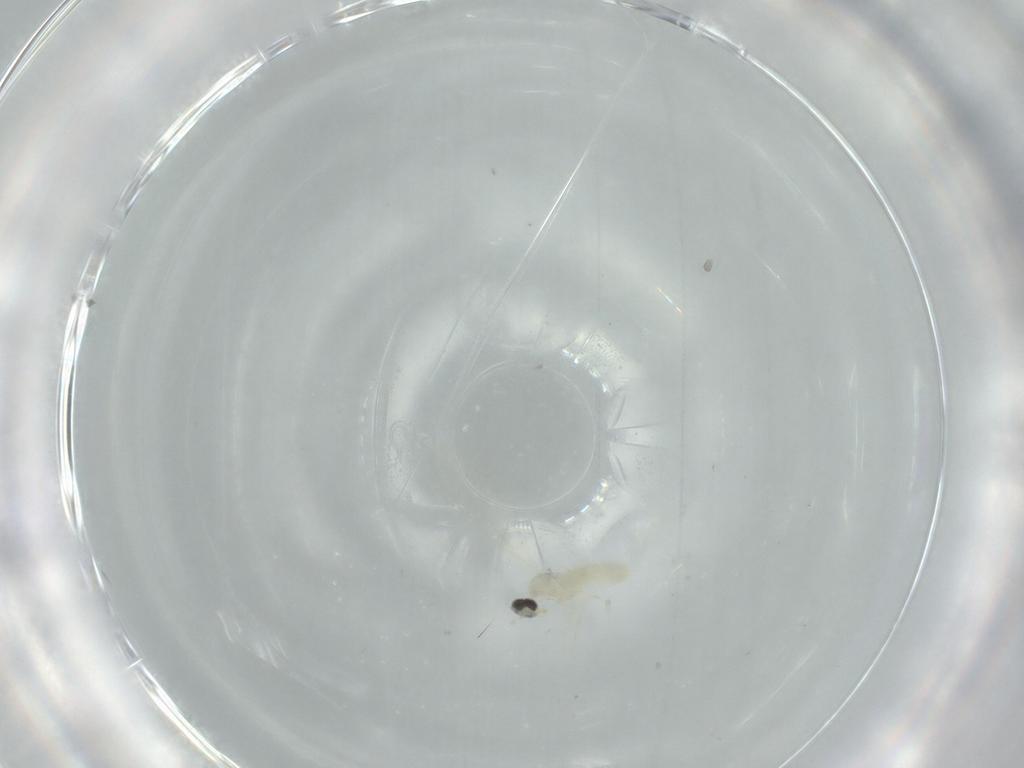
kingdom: Animalia
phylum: Arthropoda
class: Insecta
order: Diptera
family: Cecidomyiidae
